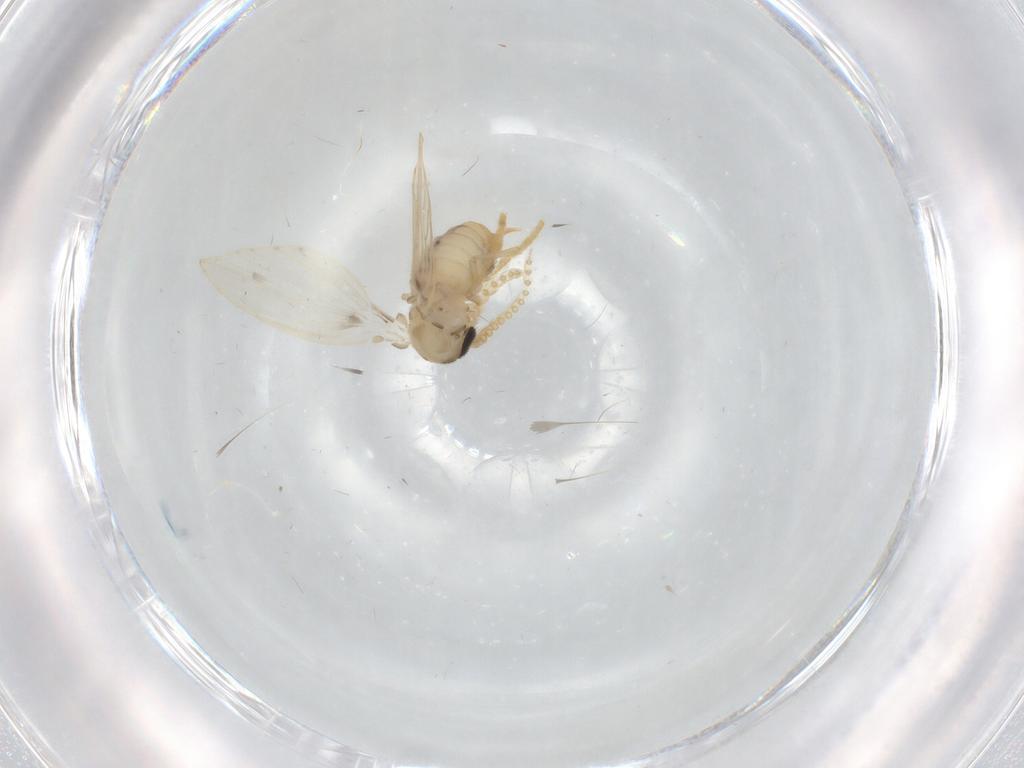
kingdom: Animalia
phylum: Arthropoda
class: Insecta
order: Diptera
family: Psychodidae
